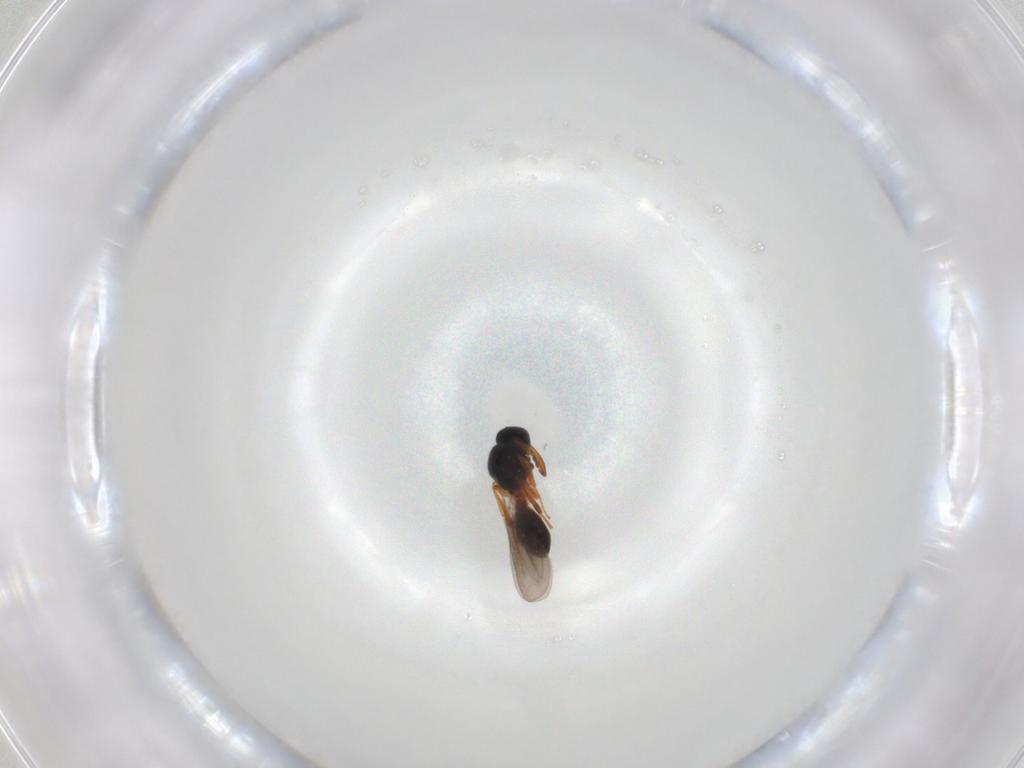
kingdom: Animalia
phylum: Arthropoda
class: Insecta
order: Hymenoptera
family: Platygastridae
